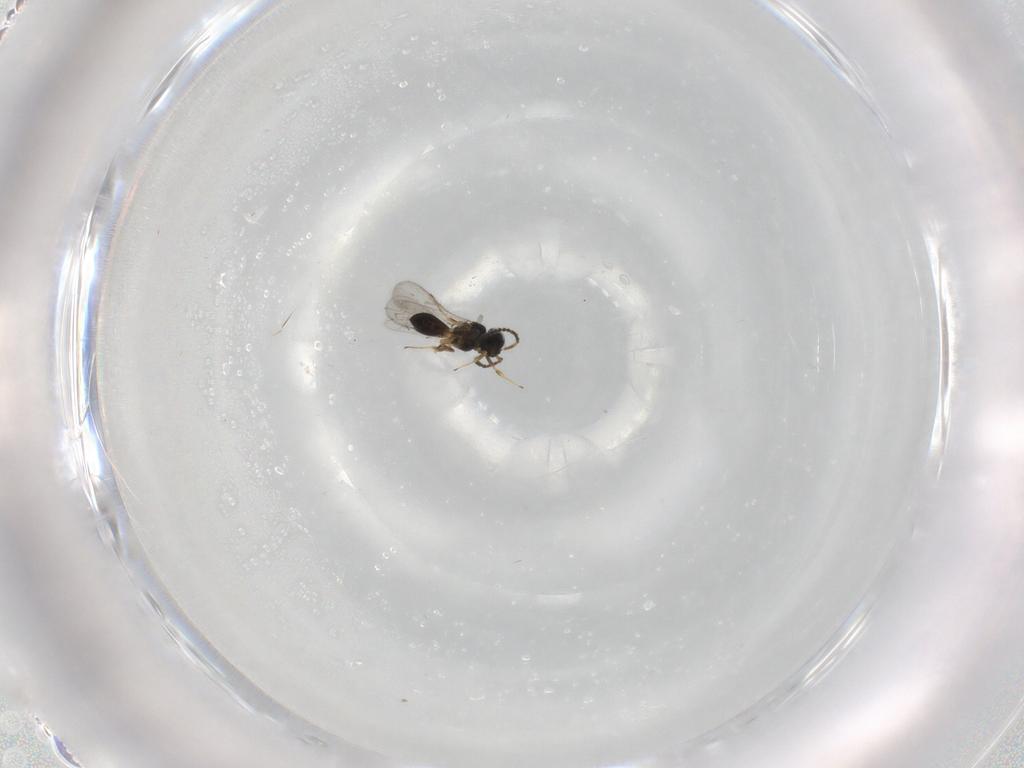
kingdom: Animalia
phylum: Arthropoda
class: Insecta
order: Hymenoptera
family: Scelionidae
